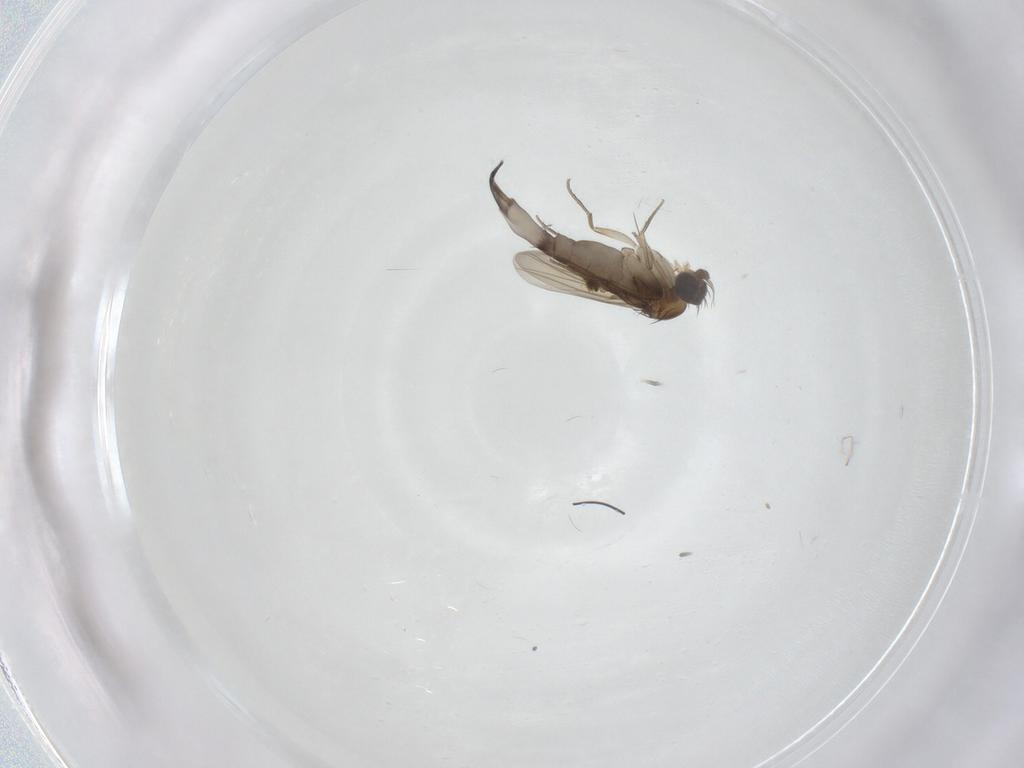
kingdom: Animalia
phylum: Arthropoda
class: Insecta
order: Diptera
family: Phoridae
